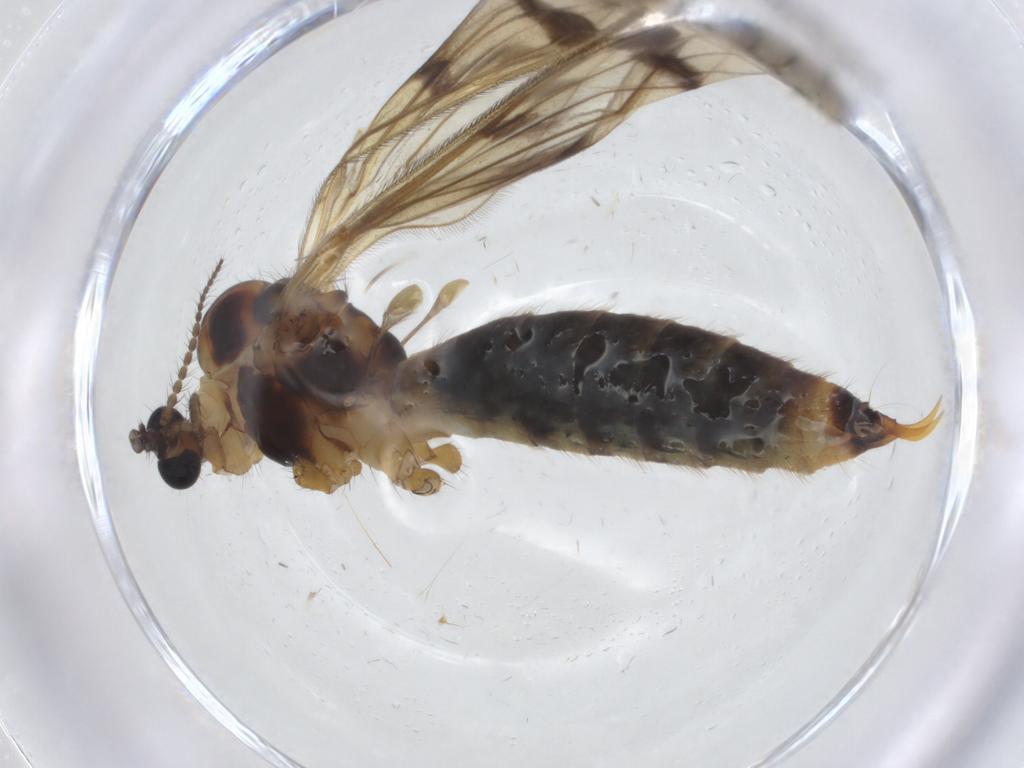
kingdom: Animalia
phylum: Arthropoda
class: Insecta
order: Diptera
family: Limoniidae
